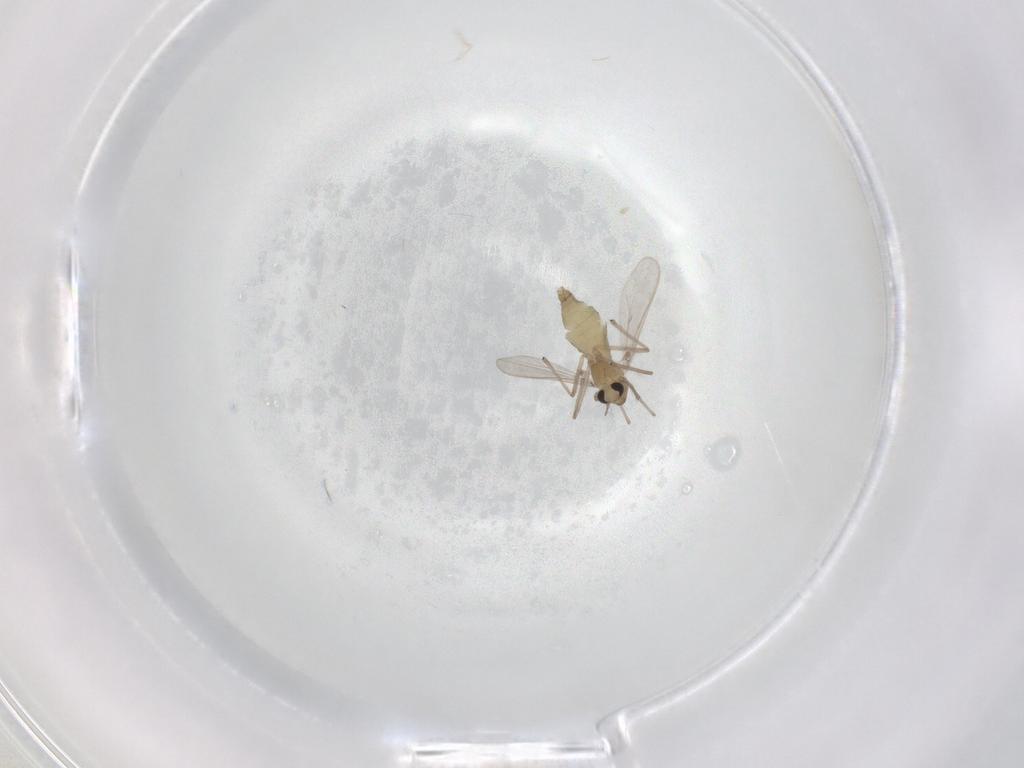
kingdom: Animalia
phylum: Arthropoda
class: Insecta
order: Diptera
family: Chironomidae
